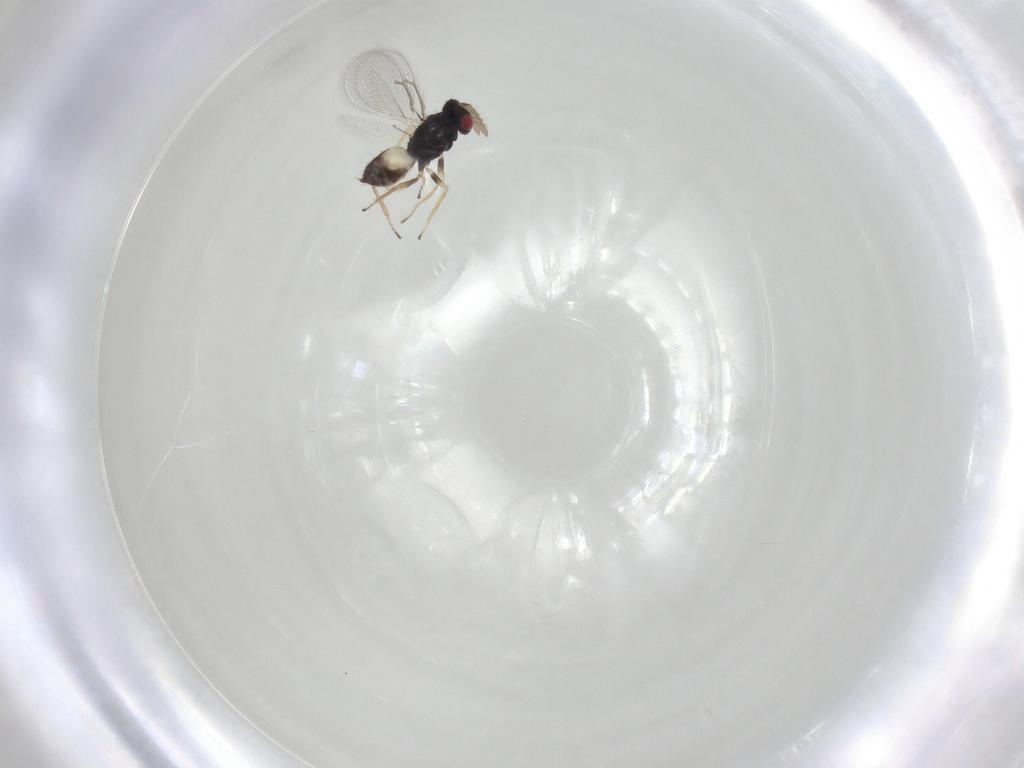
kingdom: Animalia
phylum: Arthropoda
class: Insecta
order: Hymenoptera
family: Eulophidae
